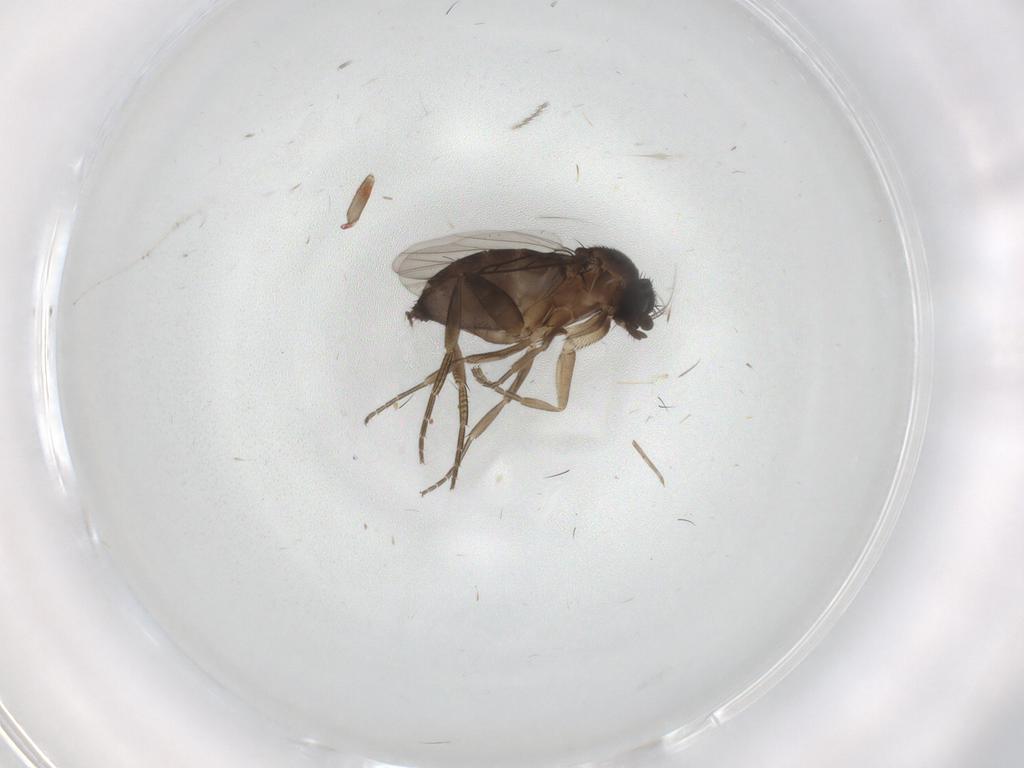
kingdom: Animalia
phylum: Arthropoda
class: Insecta
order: Diptera
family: Phoridae
